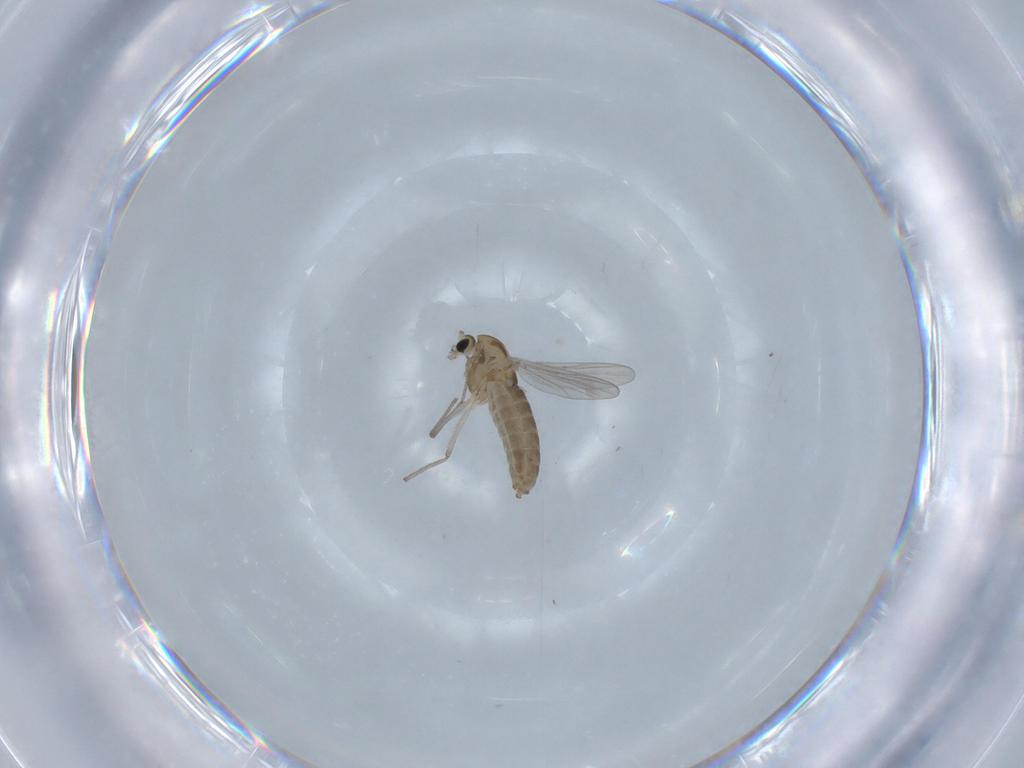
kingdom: Animalia
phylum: Arthropoda
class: Insecta
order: Diptera
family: Chironomidae
